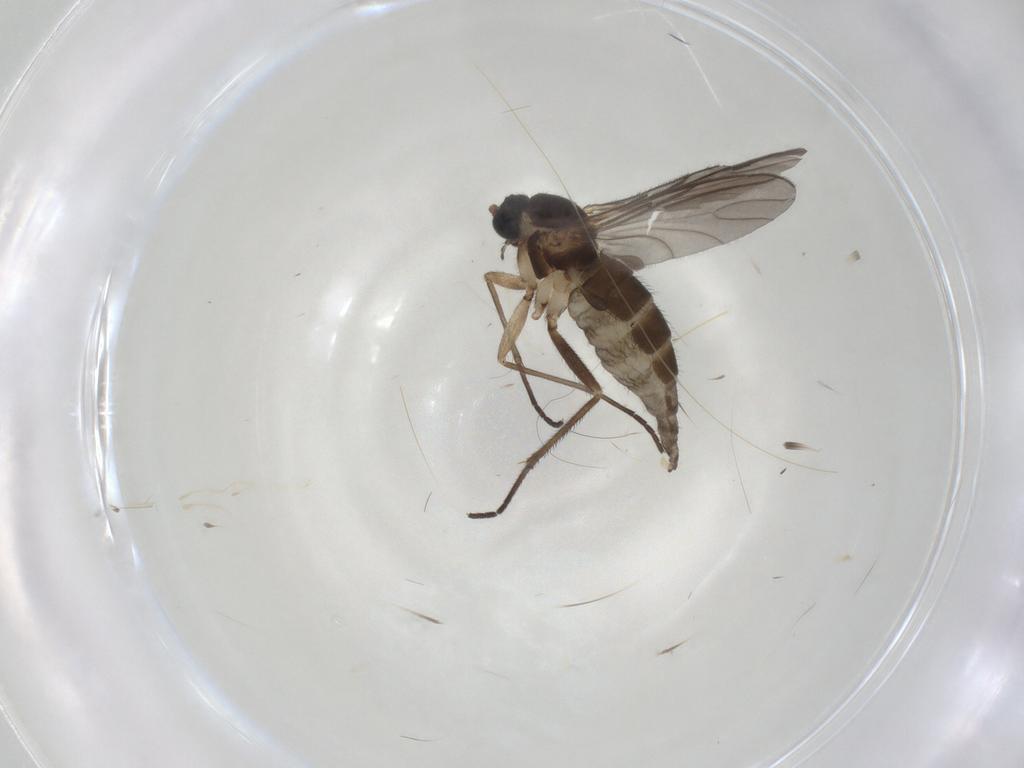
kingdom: Animalia
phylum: Arthropoda
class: Insecta
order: Diptera
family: Sciaridae
